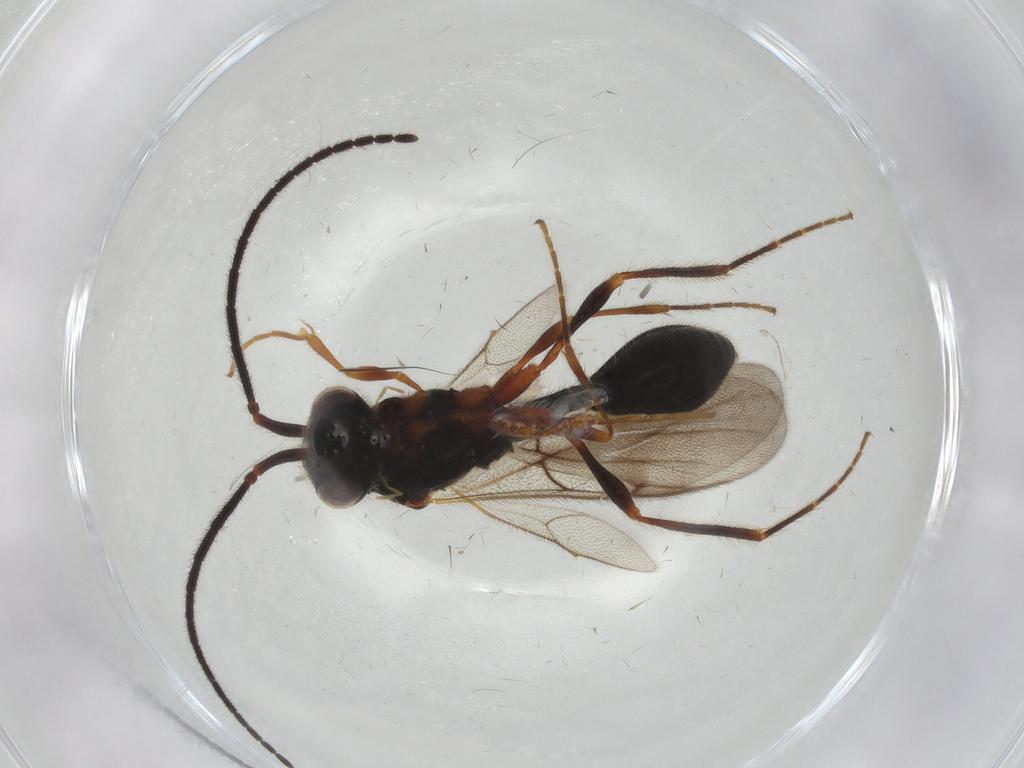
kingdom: Animalia
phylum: Arthropoda
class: Insecta
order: Hymenoptera
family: Diapriidae
